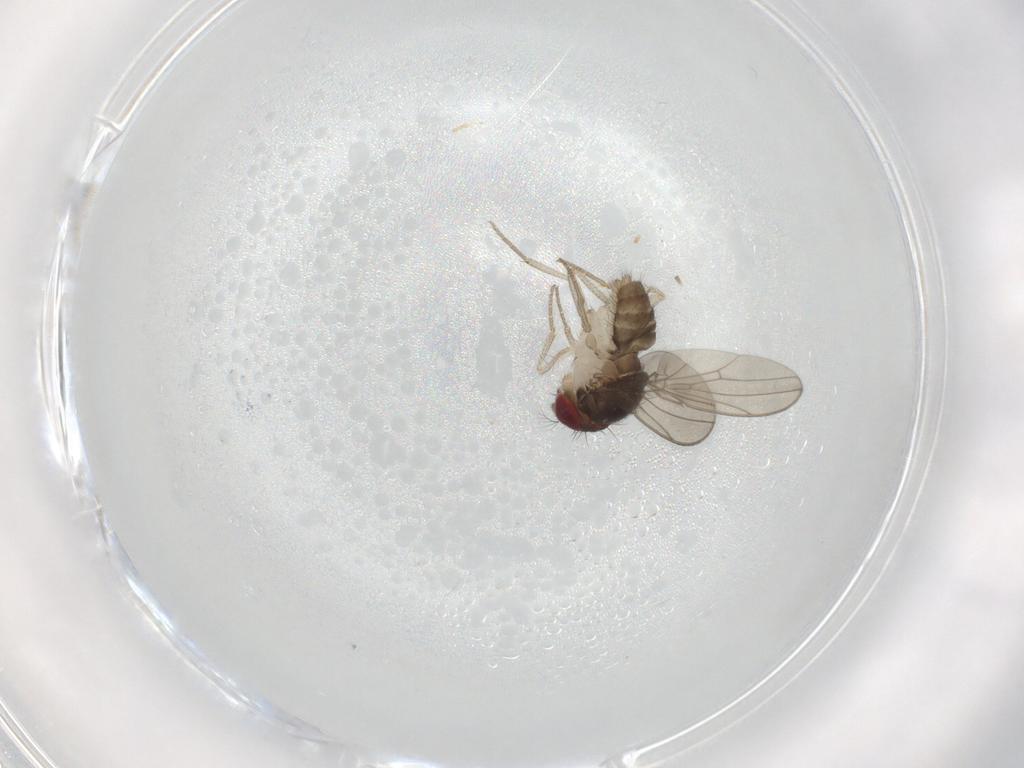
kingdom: Animalia
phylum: Arthropoda
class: Insecta
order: Diptera
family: Drosophilidae
